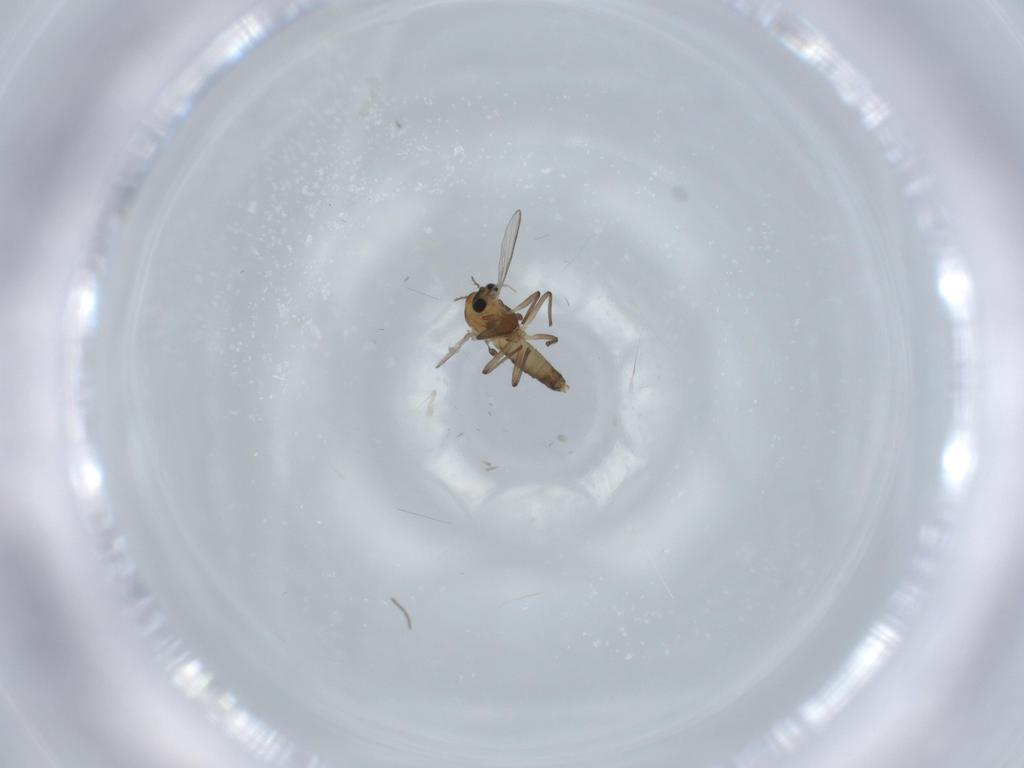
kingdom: Animalia
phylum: Arthropoda
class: Insecta
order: Diptera
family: Chironomidae
